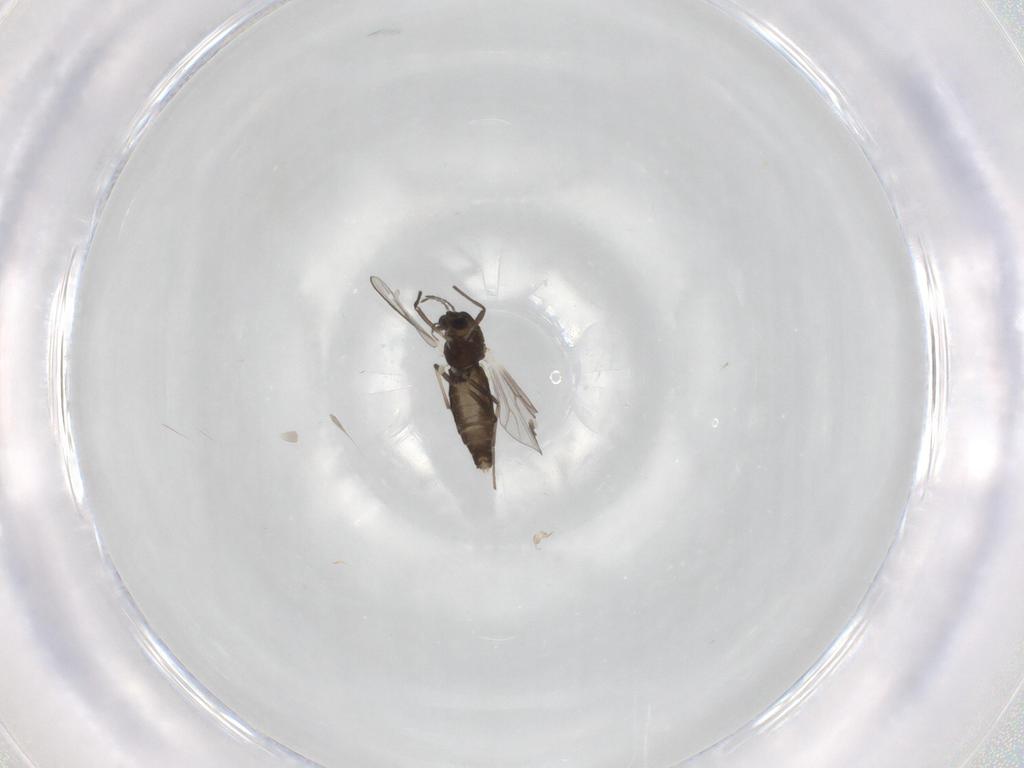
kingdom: Animalia
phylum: Arthropoda
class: Insecta
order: Diptera
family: Chironomidae
